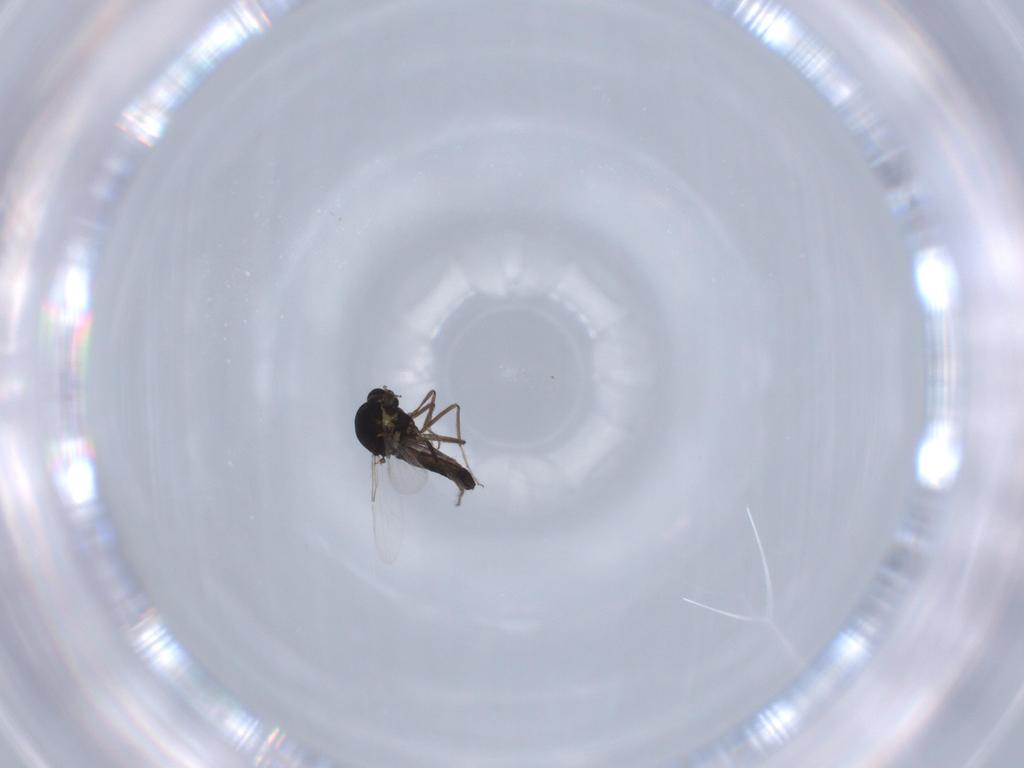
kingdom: Animalia
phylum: Arthropoda
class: Insecta
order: Diptera
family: Ceratopogonidae
